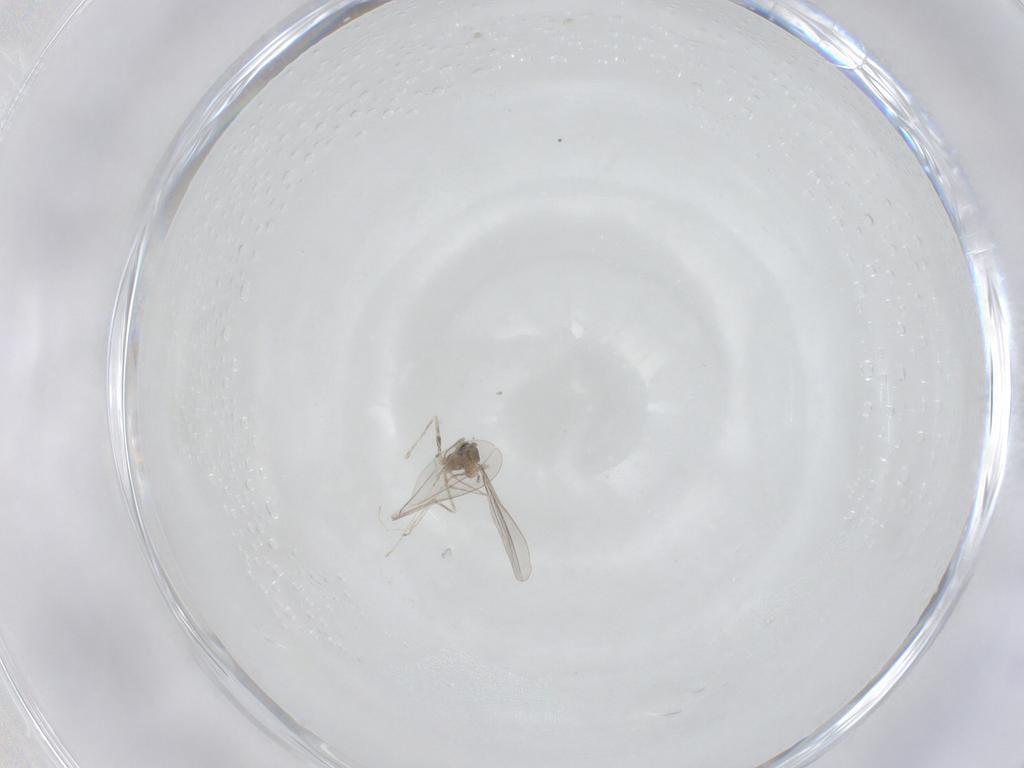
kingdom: Animalia
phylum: Arthropoda
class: Insecta
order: Diptera
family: Cecidomyiidae
